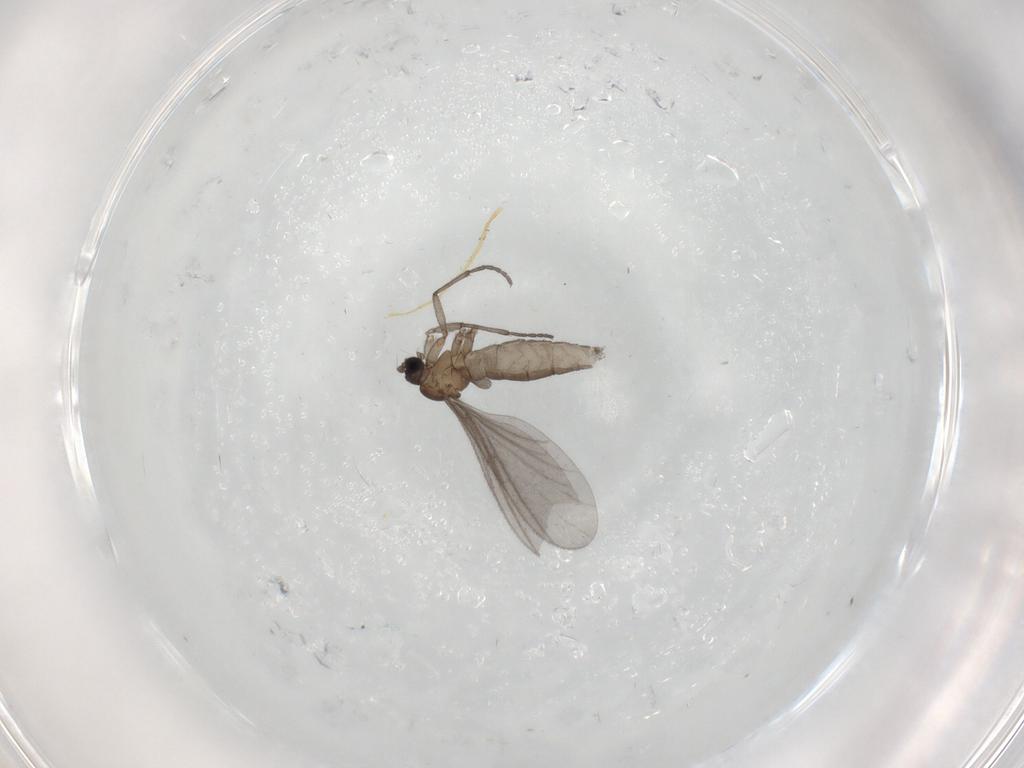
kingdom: Animalia
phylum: Arthropoda
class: Insecta
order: Diptera
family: Sciaridae
